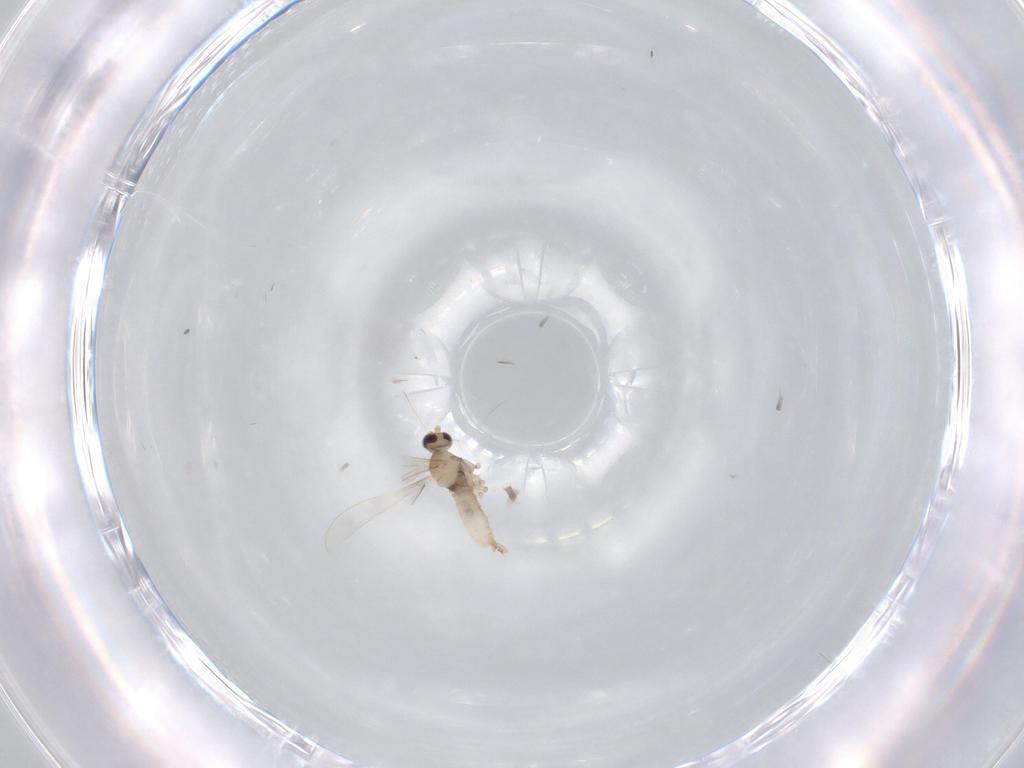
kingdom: Animalia
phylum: Arthropoda
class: Insecta
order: Diptera
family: Cecidomyiidae
